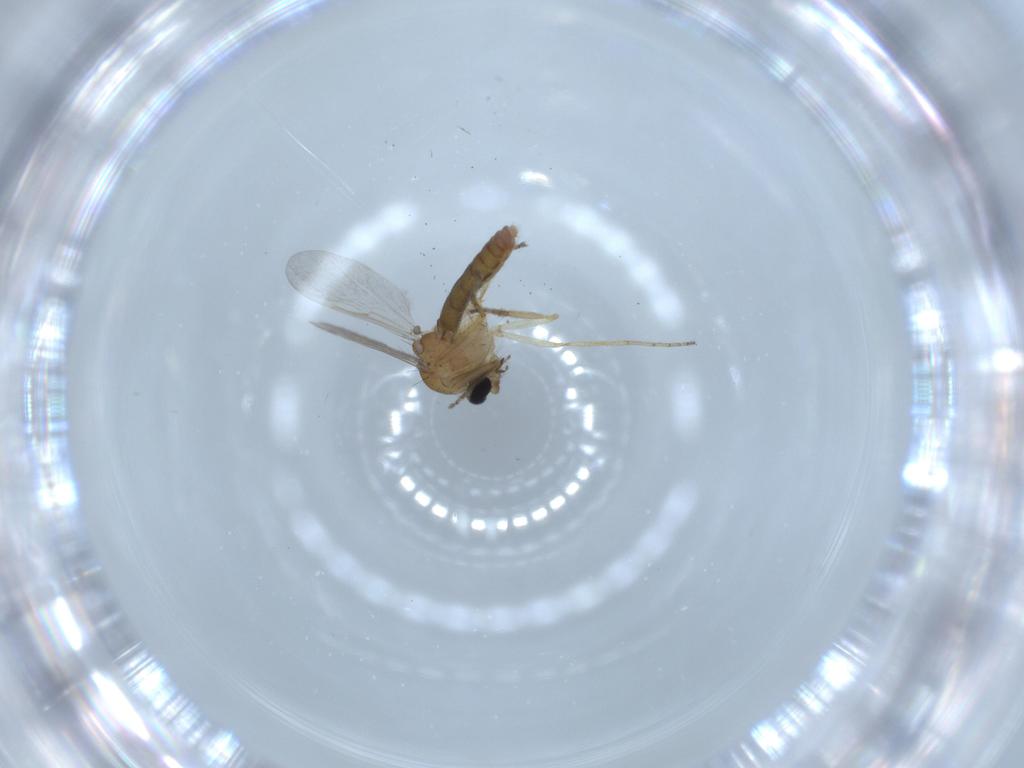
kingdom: Animalia
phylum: Arthropoda
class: Insecta
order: Diptera
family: Ceratopogonidae
